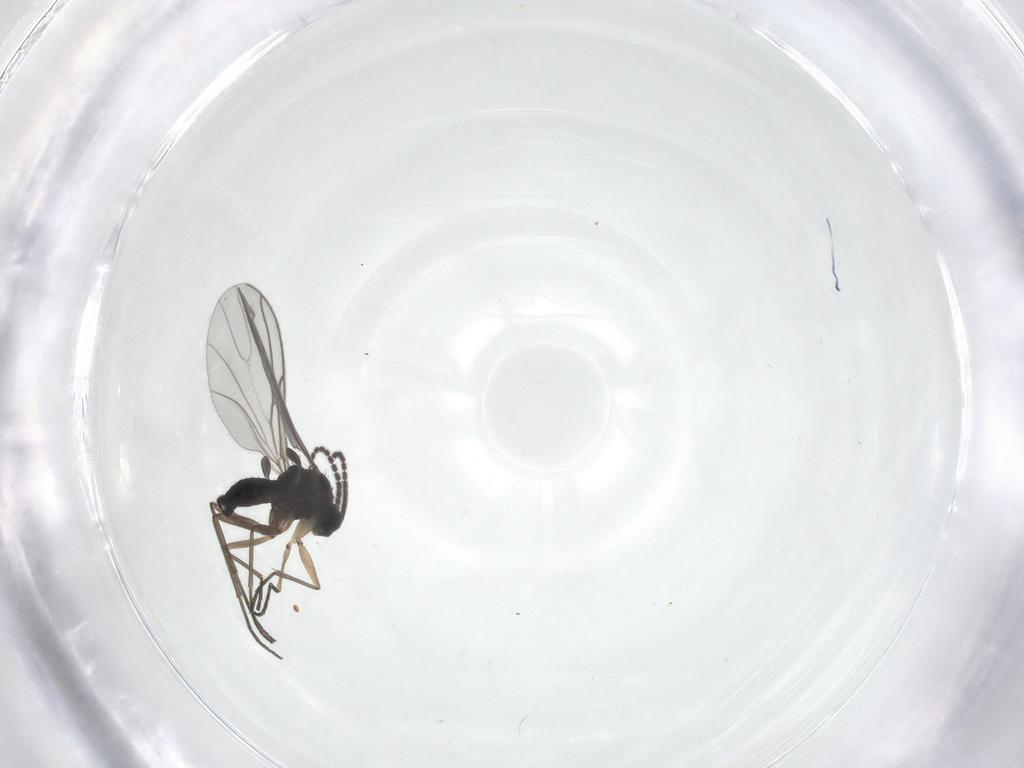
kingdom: Animalia
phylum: Arthropoda
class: Insecta
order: Diptera
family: Sciaridae
